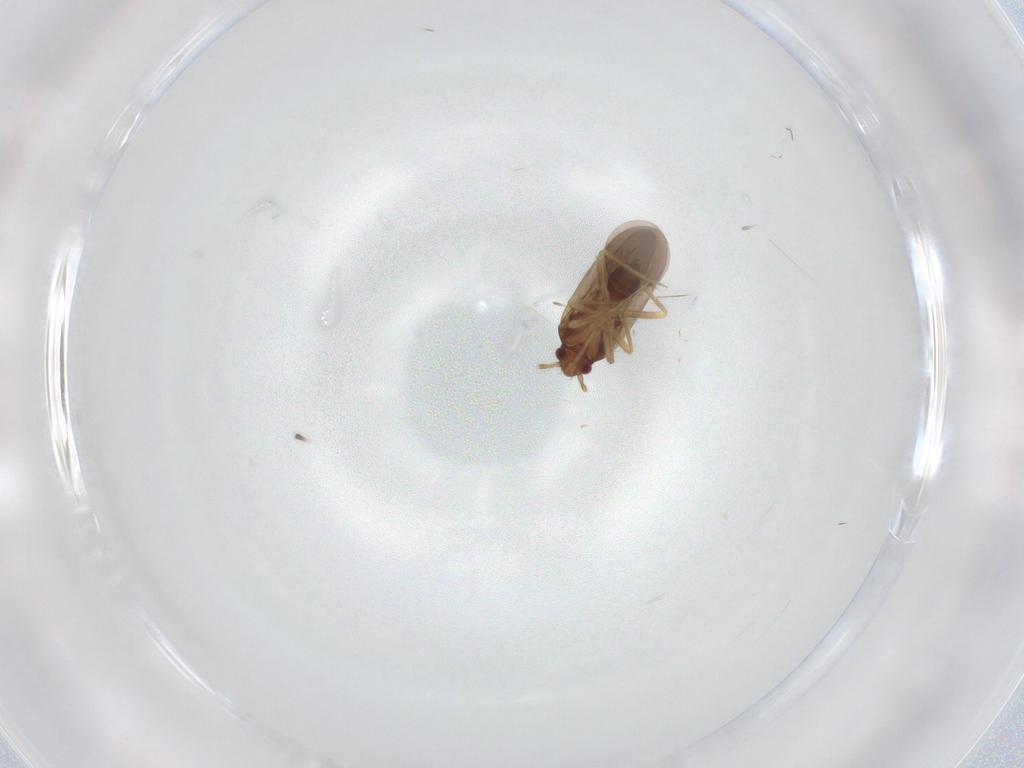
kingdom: Animalia
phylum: Arthropoda
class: Insecta
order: Hemiptera
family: Ceratocombidae
